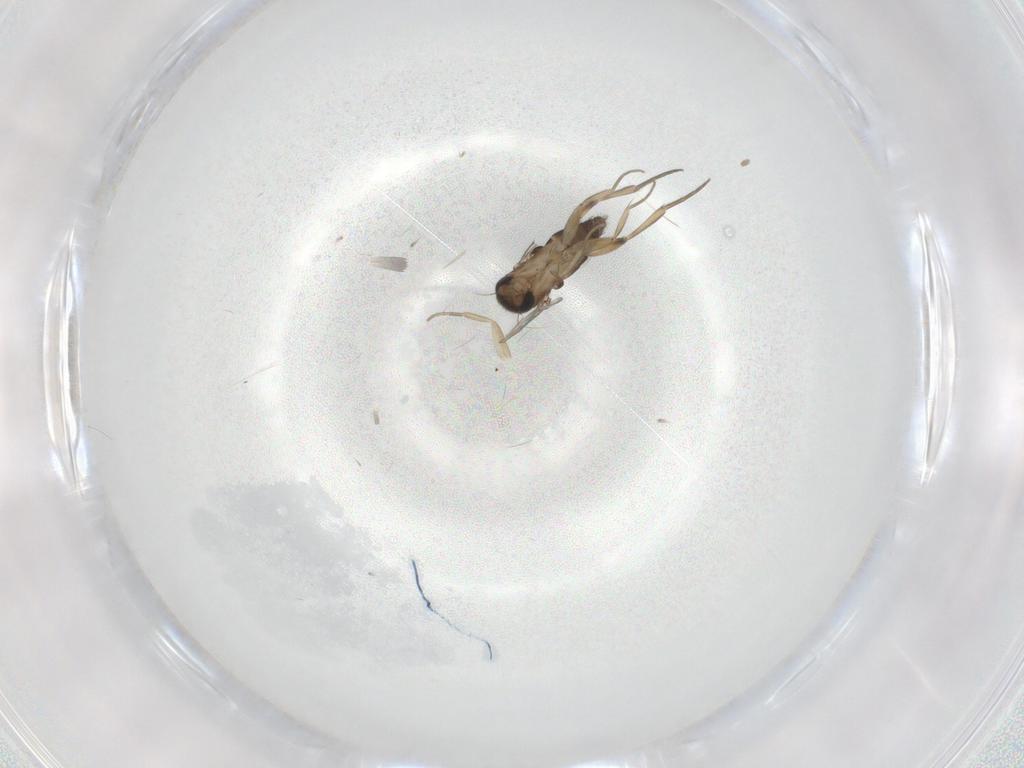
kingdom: Animalia
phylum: Arthropoda
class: Insecta
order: Diptera
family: Phoridae
